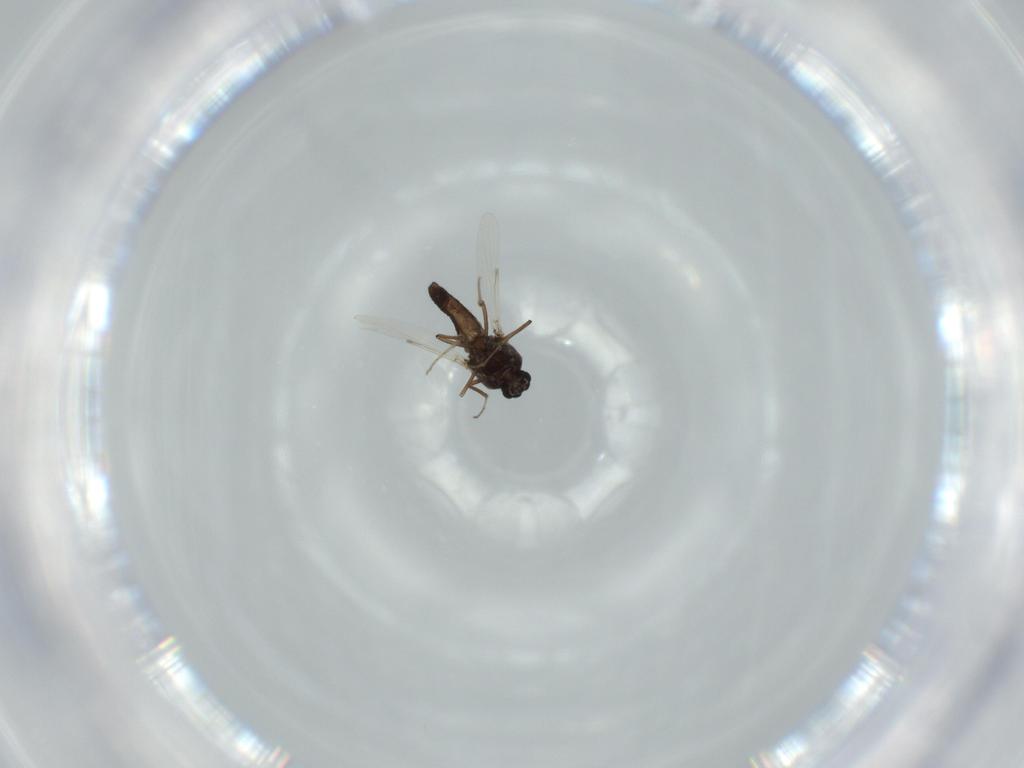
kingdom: Animalia
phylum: Arthropoda
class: Insecta
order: Diptera
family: Ceratopogonidae
